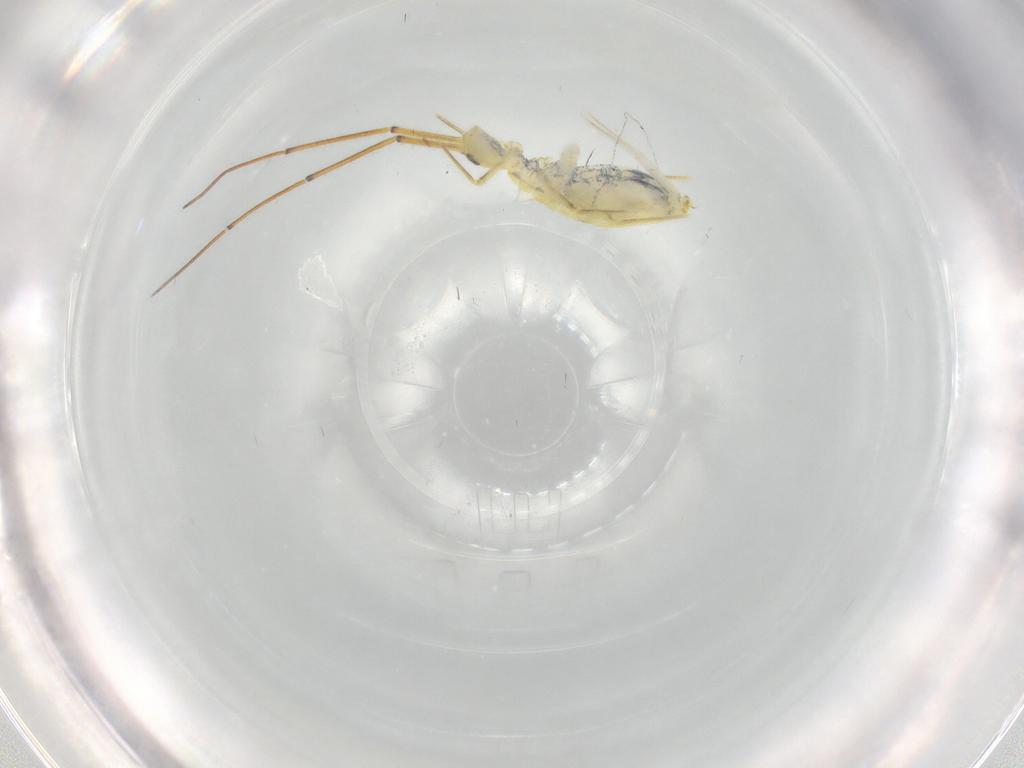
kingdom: Animalia
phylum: Arthropoda
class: Collembola
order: Entomobryomorpha
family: Entomobryidae
